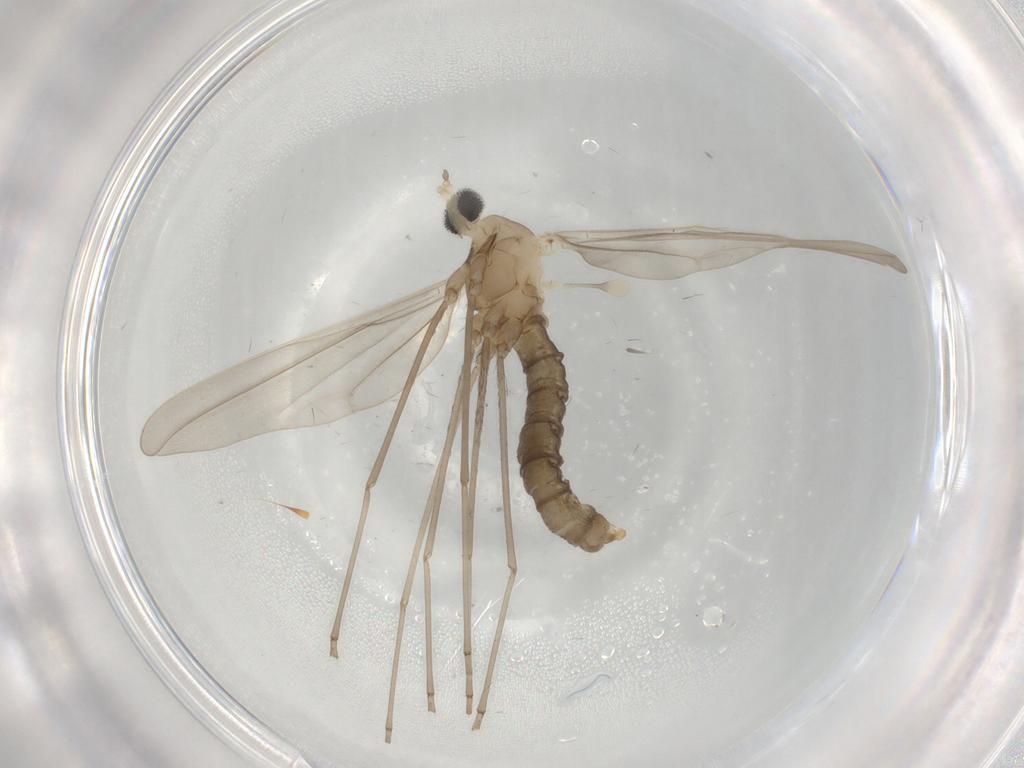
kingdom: Animalia
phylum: Arthropoda
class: Insecta
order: Diptera
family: Cecidomyiidae
